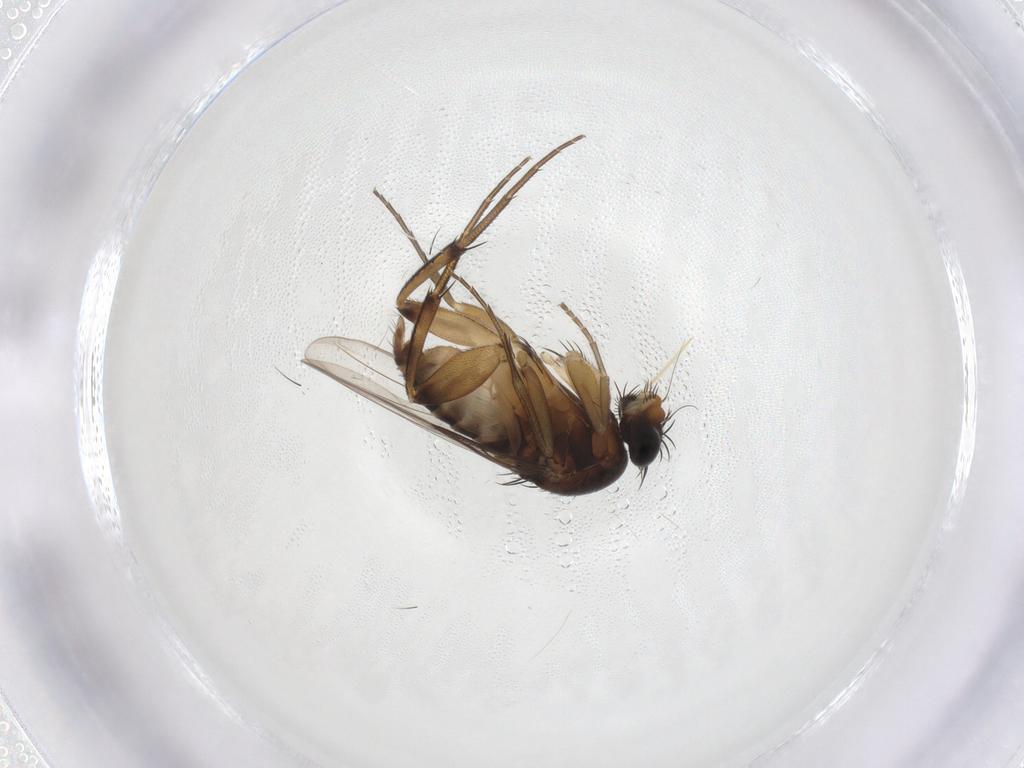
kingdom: Animalia
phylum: Arthropoda
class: Insecta
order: Diptera
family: Phoridae
